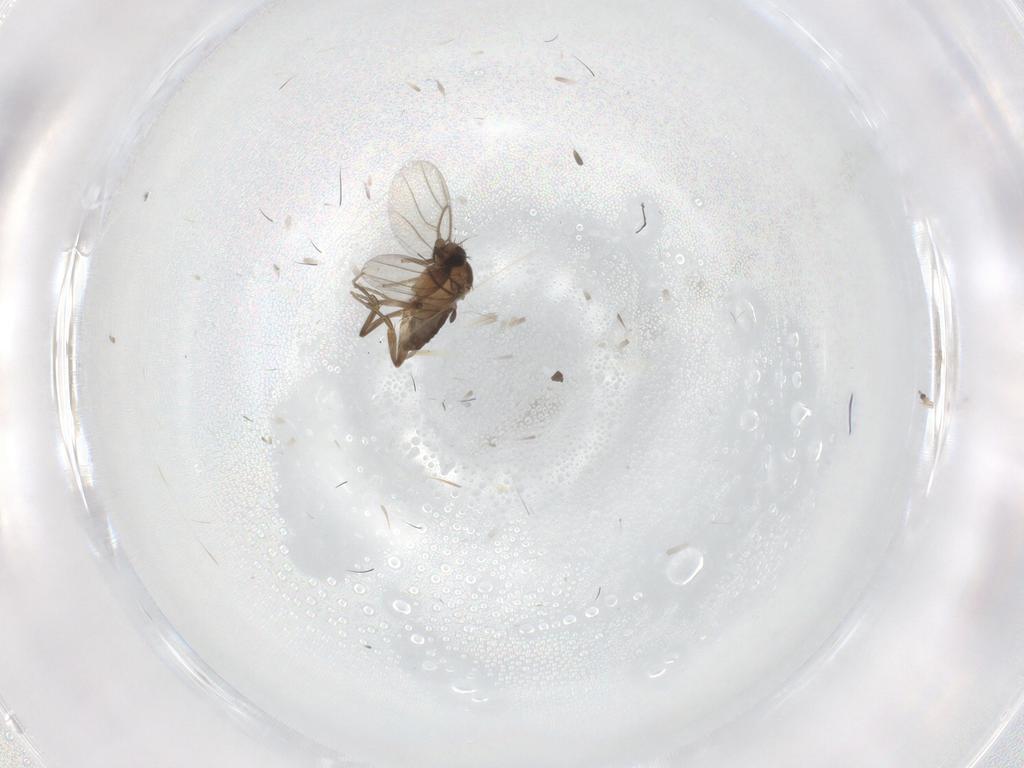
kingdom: Animalia
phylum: Arthropoda
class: Insecta
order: Diptera
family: Phoridae
